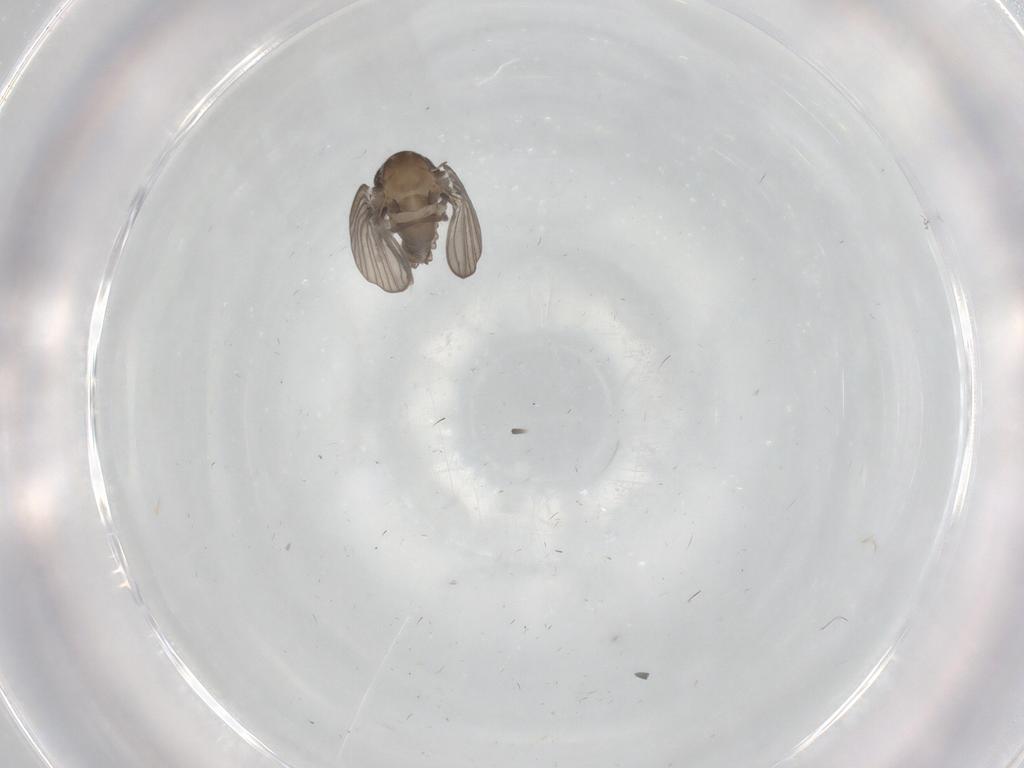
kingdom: Animalia
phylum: Arthropoda
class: Insecta
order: Diptera
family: Psychodidae
